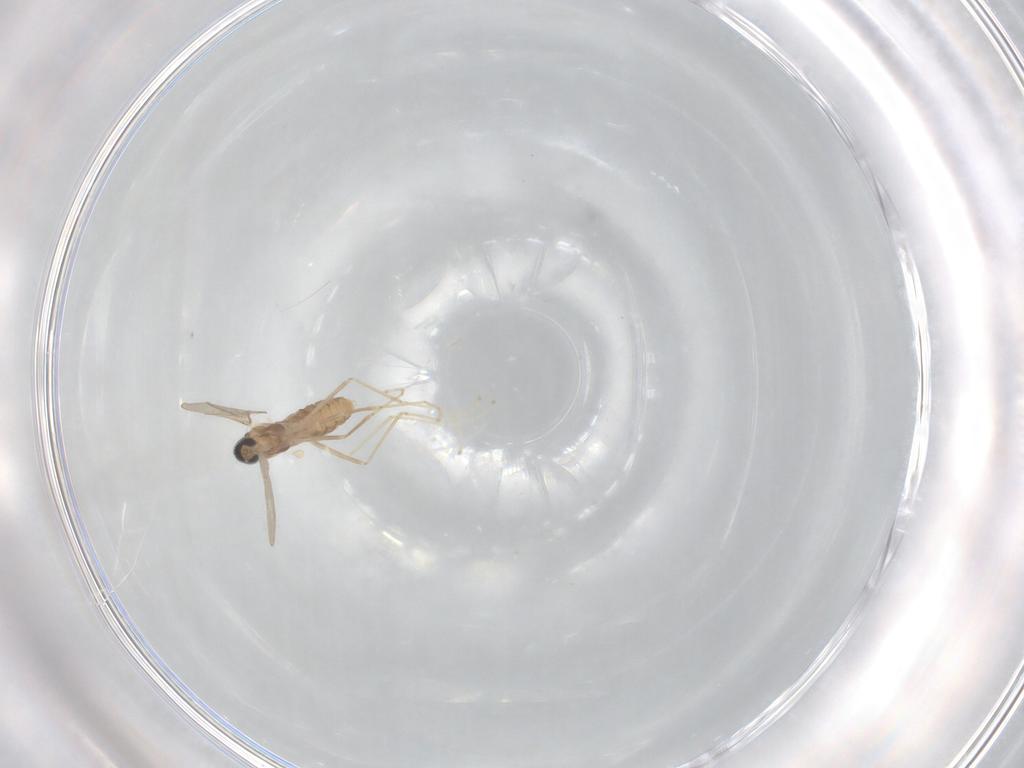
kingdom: Animalia
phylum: Arthropoda
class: Insecta
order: Diptera
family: Cecidomyiidae
